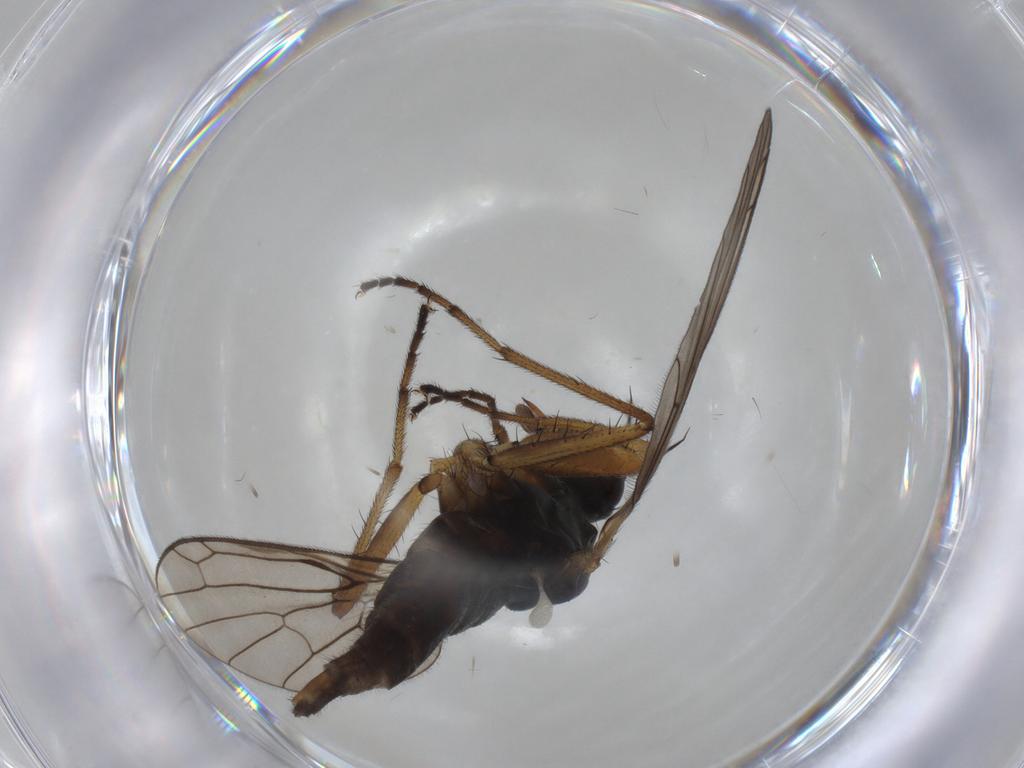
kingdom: Animalia
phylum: Arthropoda
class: Insecta
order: Diptera
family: Empididae
